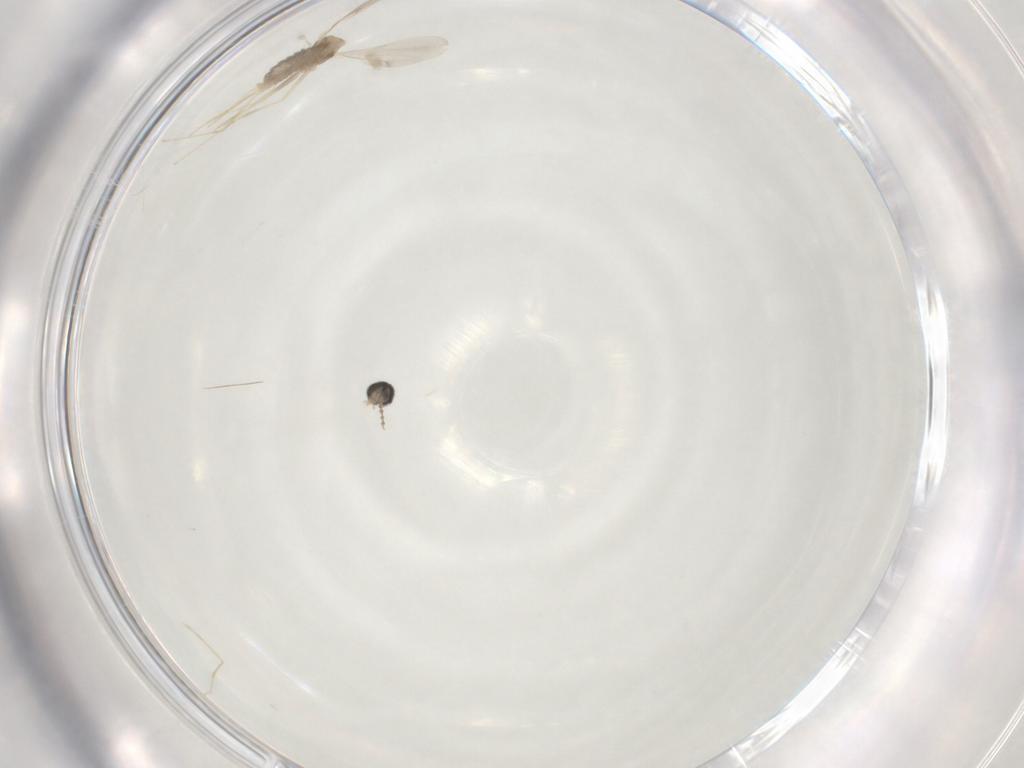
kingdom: Animalia
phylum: Arthropoda
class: Insecta
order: Diptera
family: Cecidomyiidae
